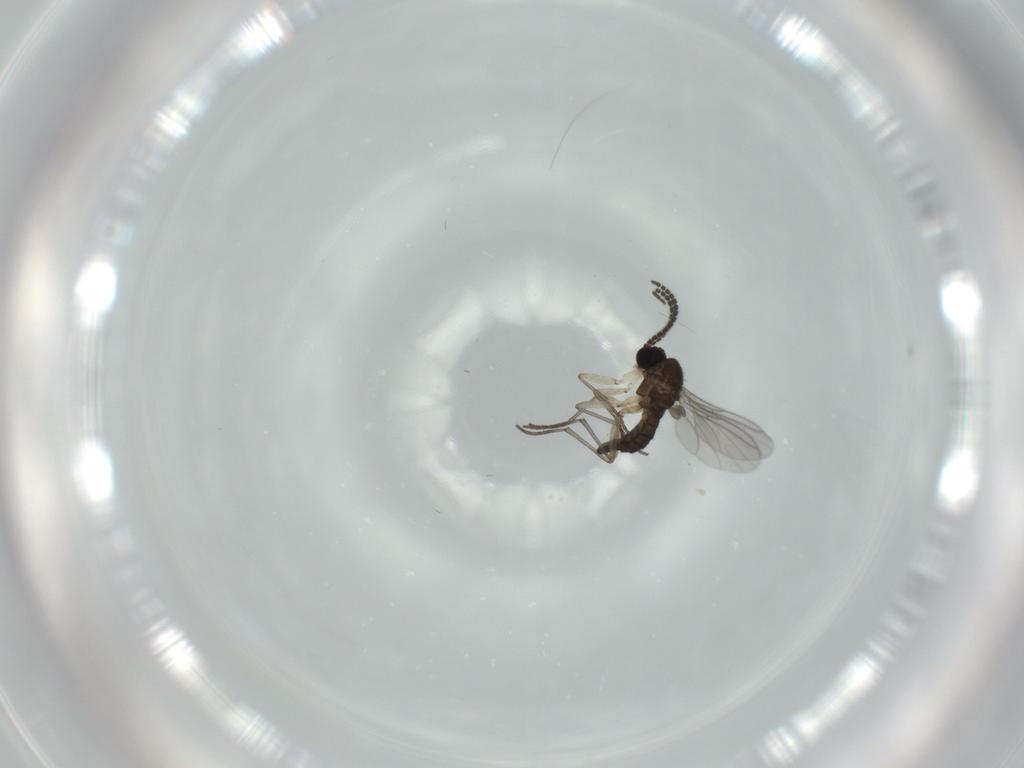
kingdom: Animalia
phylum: Arthropoda
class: Insecta
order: Diptera
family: Sciaridae
